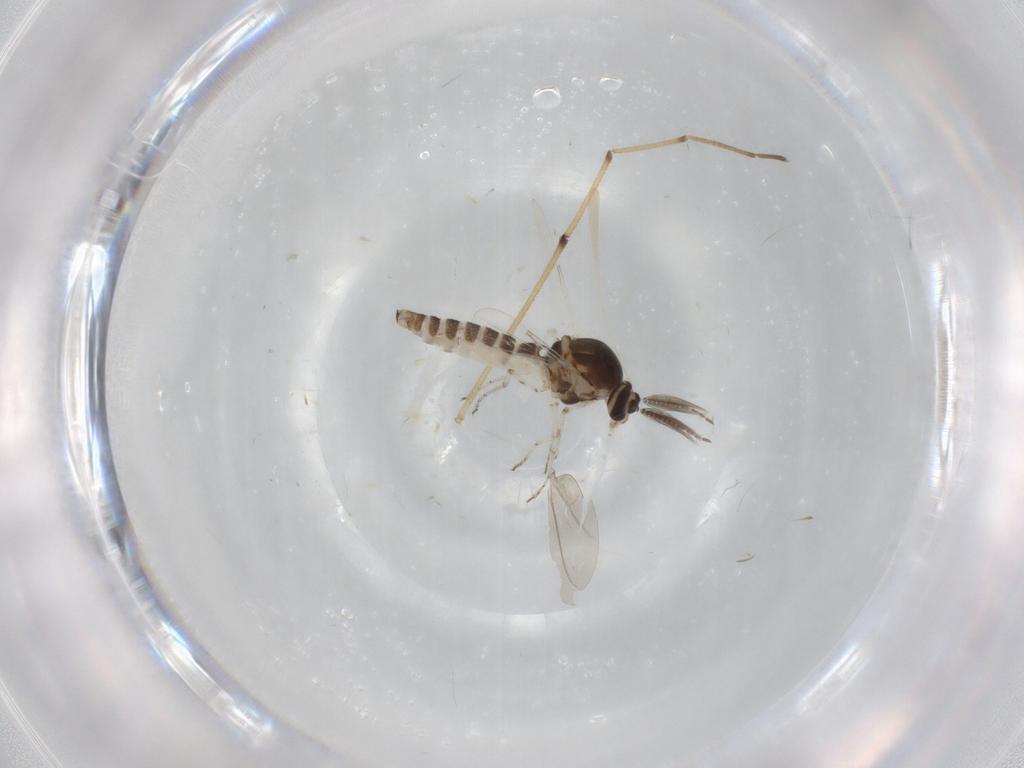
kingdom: Animalia
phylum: Arthropoda
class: Insecta
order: Diptera
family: Ceratopogonidae
